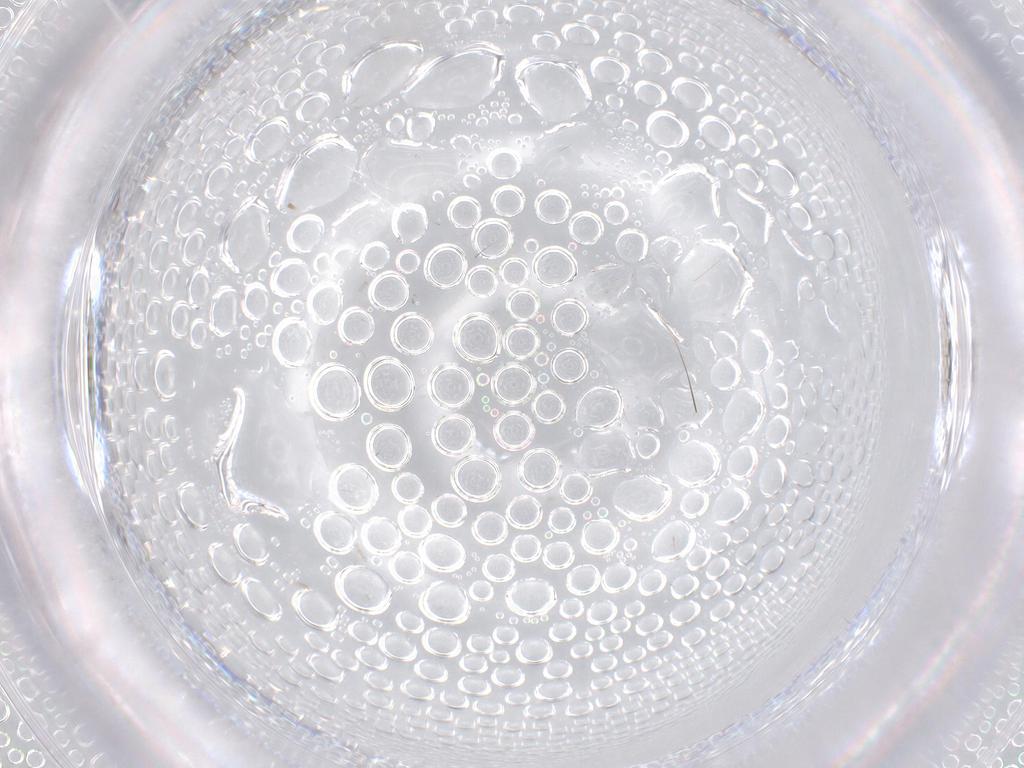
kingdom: Animalia
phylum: Arthropoda
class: Insecta
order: Diptera
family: Limoniidae
